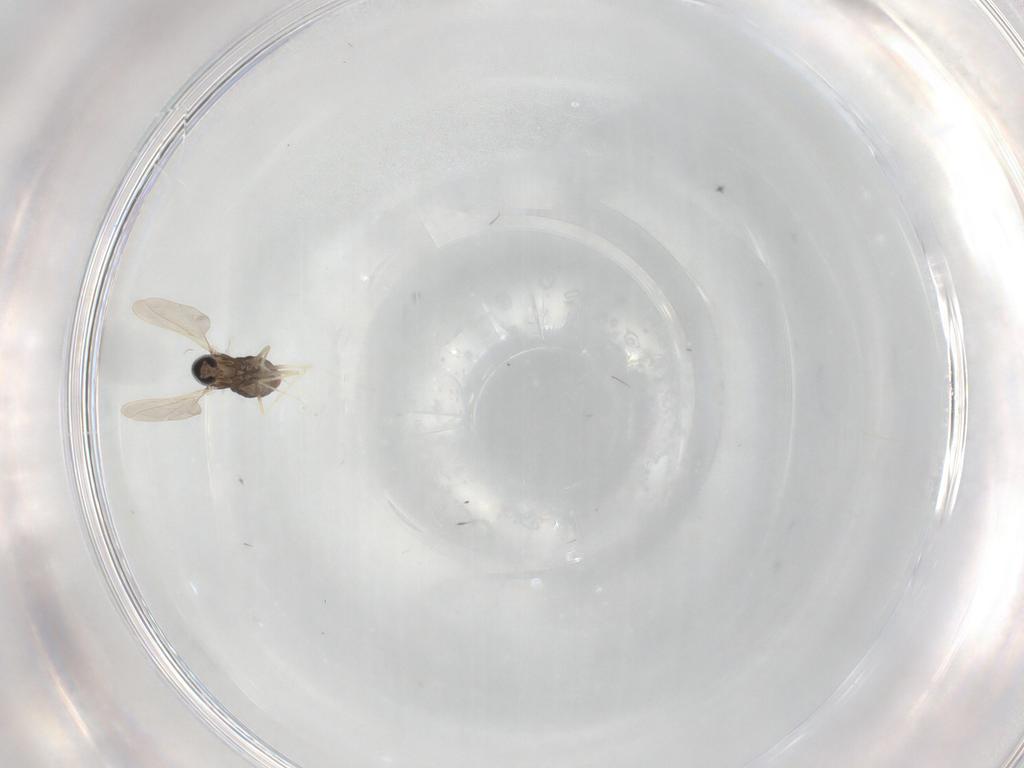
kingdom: Animalia
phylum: Arthropoda
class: Insecta
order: Diptera
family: Cecidomyiidae
